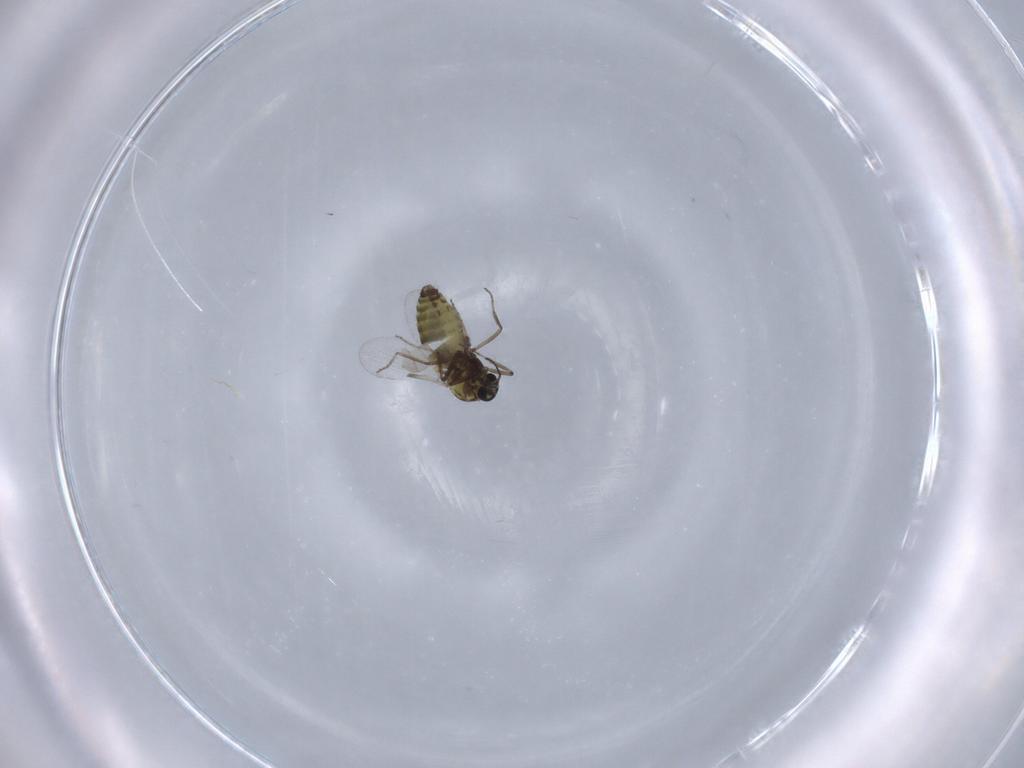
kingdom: Animalia
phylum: Arthropoda
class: Insecta
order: Diptera
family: Ceratopogonidae
